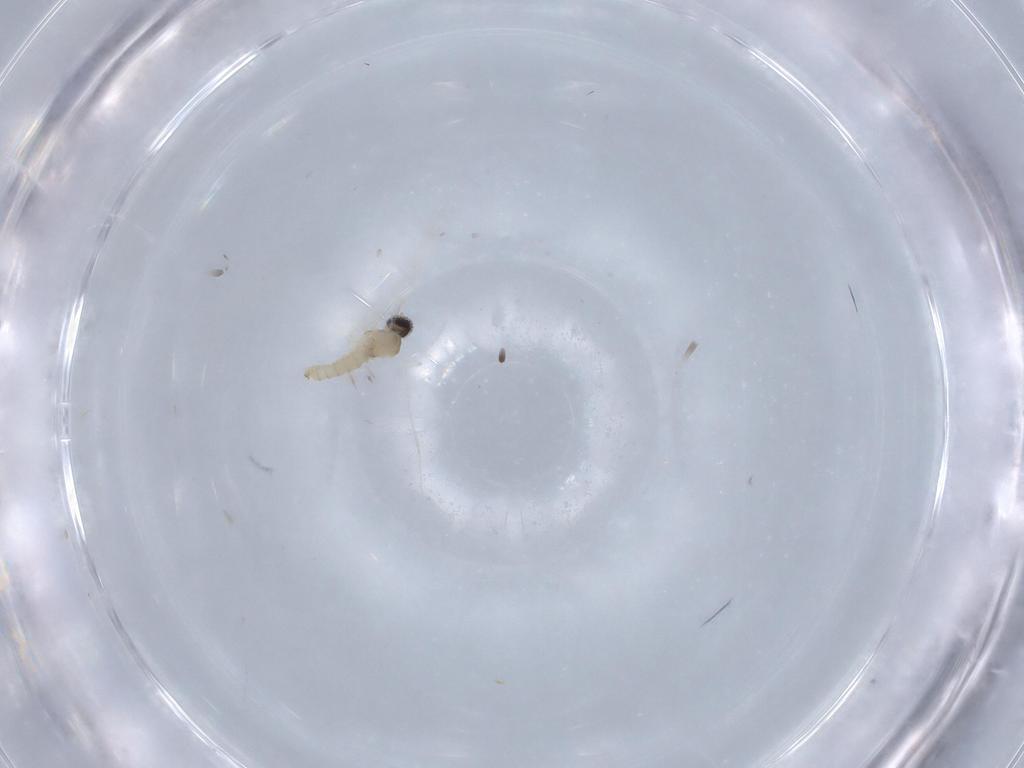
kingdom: Animalia
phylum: Arthropoda
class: Insecta
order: Diptera
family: Cecidomyiidae
